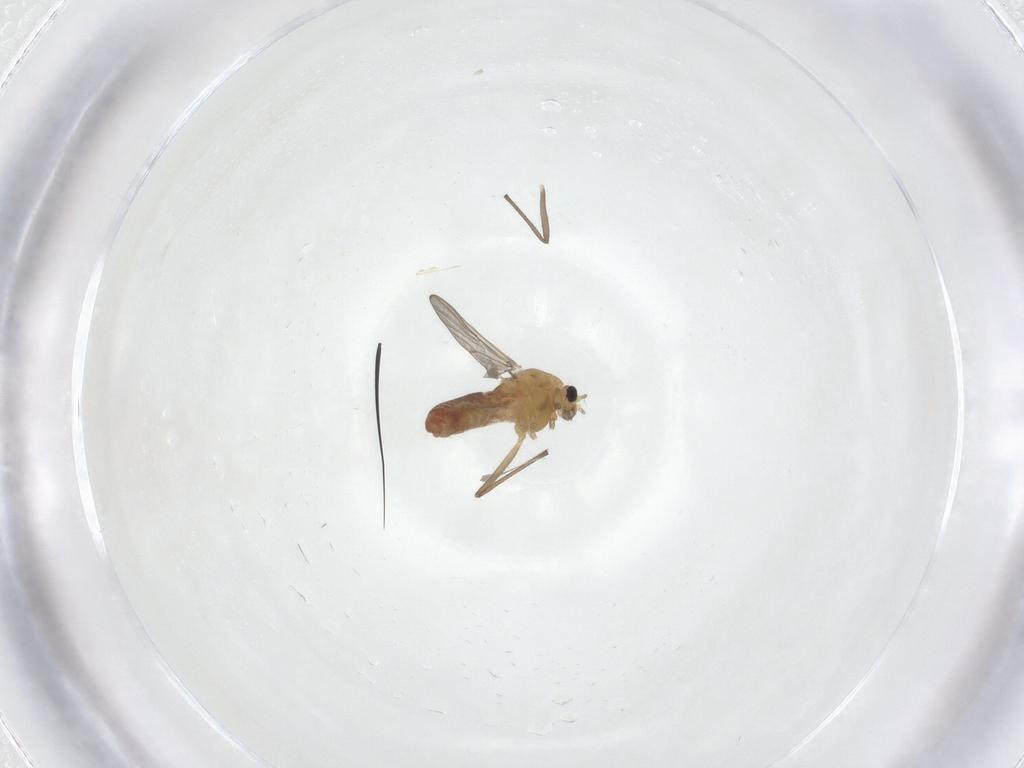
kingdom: Animalia
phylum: Arthropoda
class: Insecta
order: Diptera
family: Chironomidae
